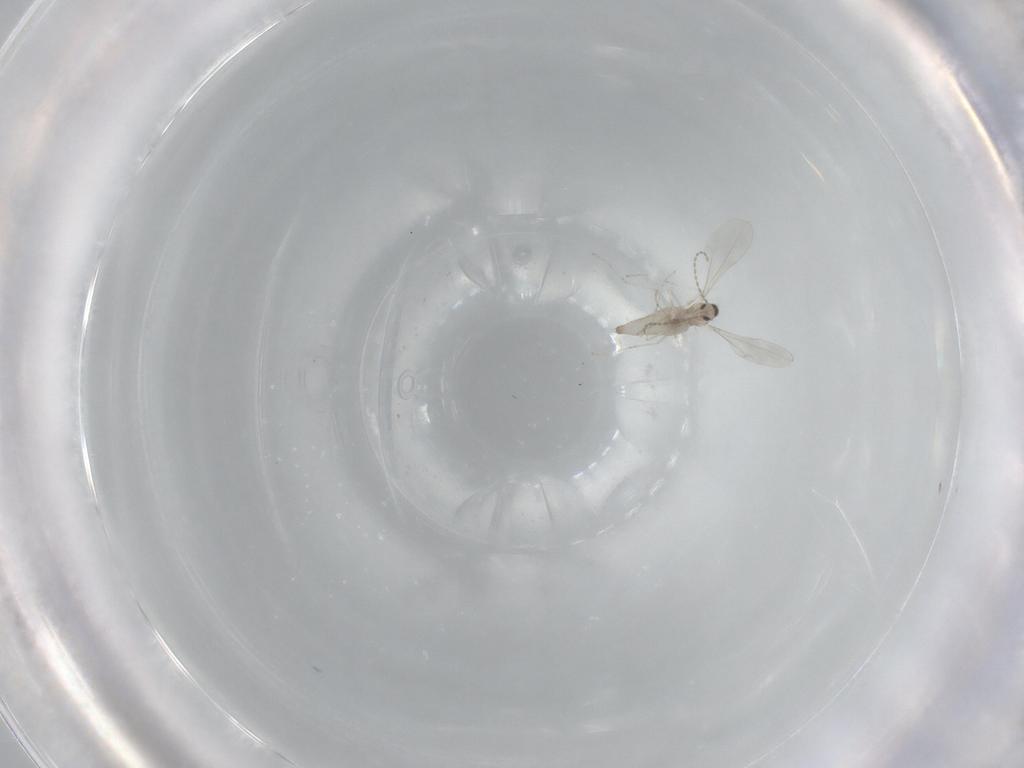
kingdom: Animalia
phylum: Arthropoda
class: Insecta
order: Diptera
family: Cecidomyiidae
